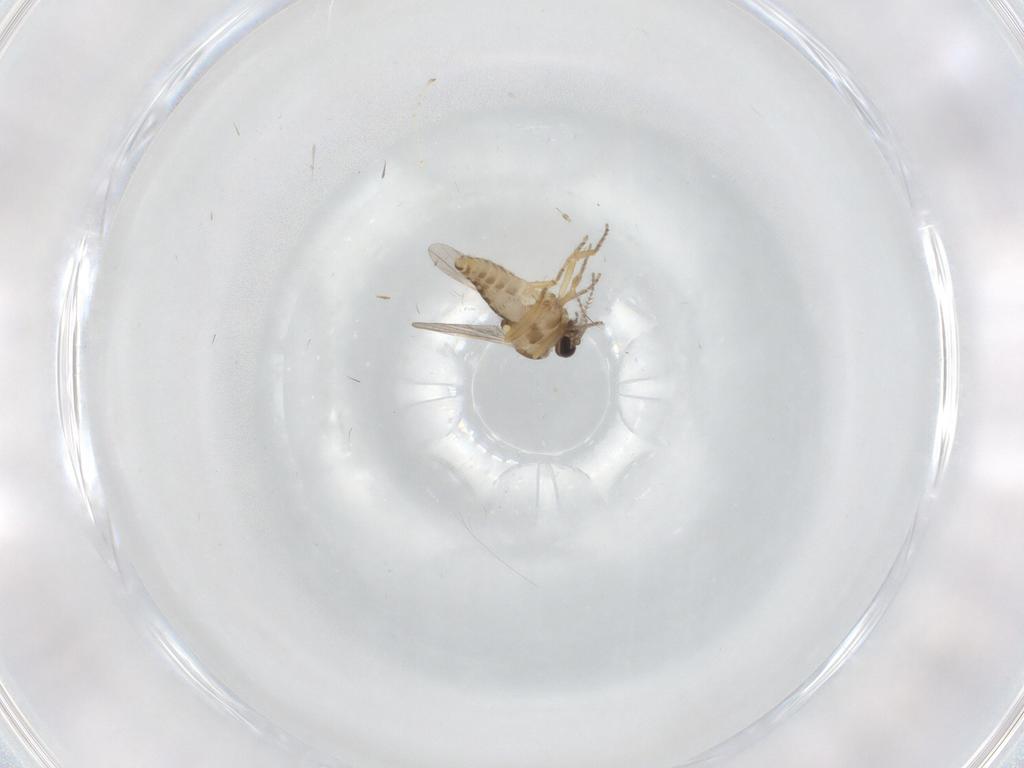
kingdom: Animalia
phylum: Arthropoda
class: Insecta
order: Diptera
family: Ceratopogonidae
